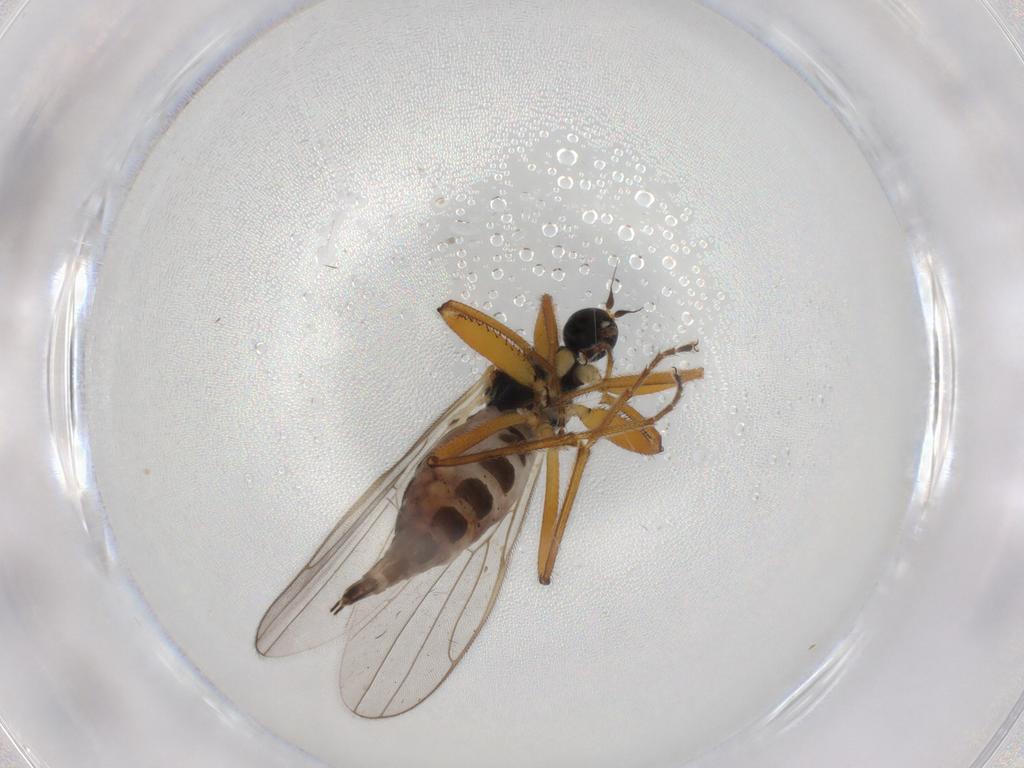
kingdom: Animalia
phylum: Arthropoda
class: Insecta
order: Diptera
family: Hybotidae
